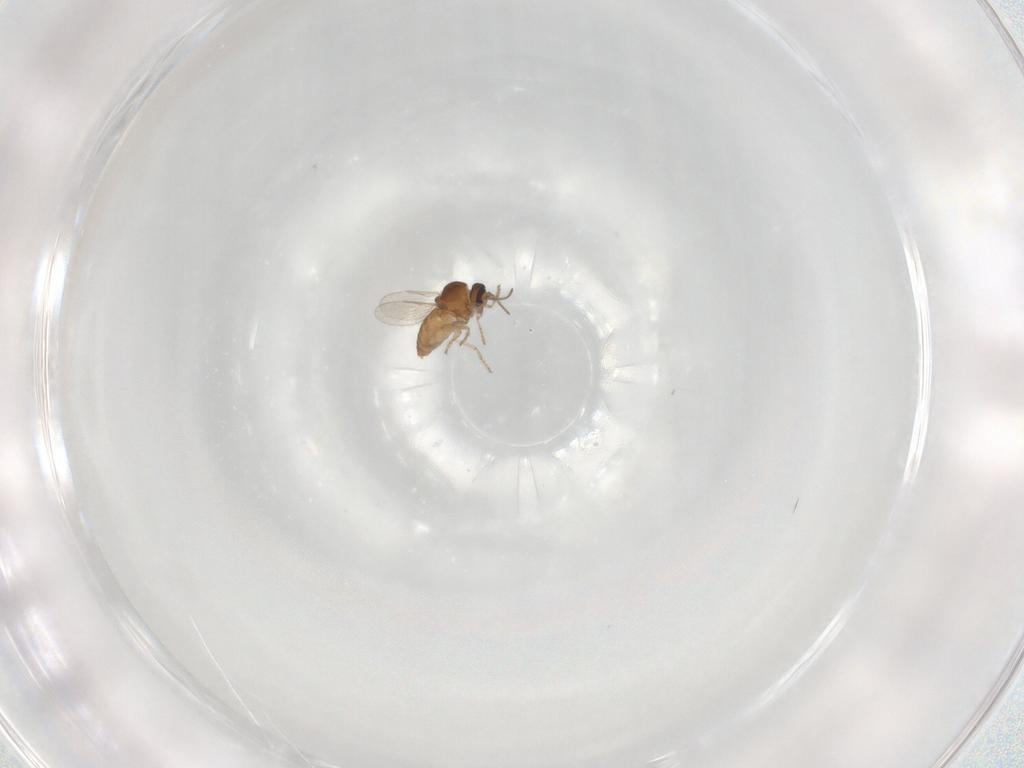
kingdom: Animalia
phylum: Arthropoda
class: Insecta
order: Diptera
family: Ceratopogonidae
